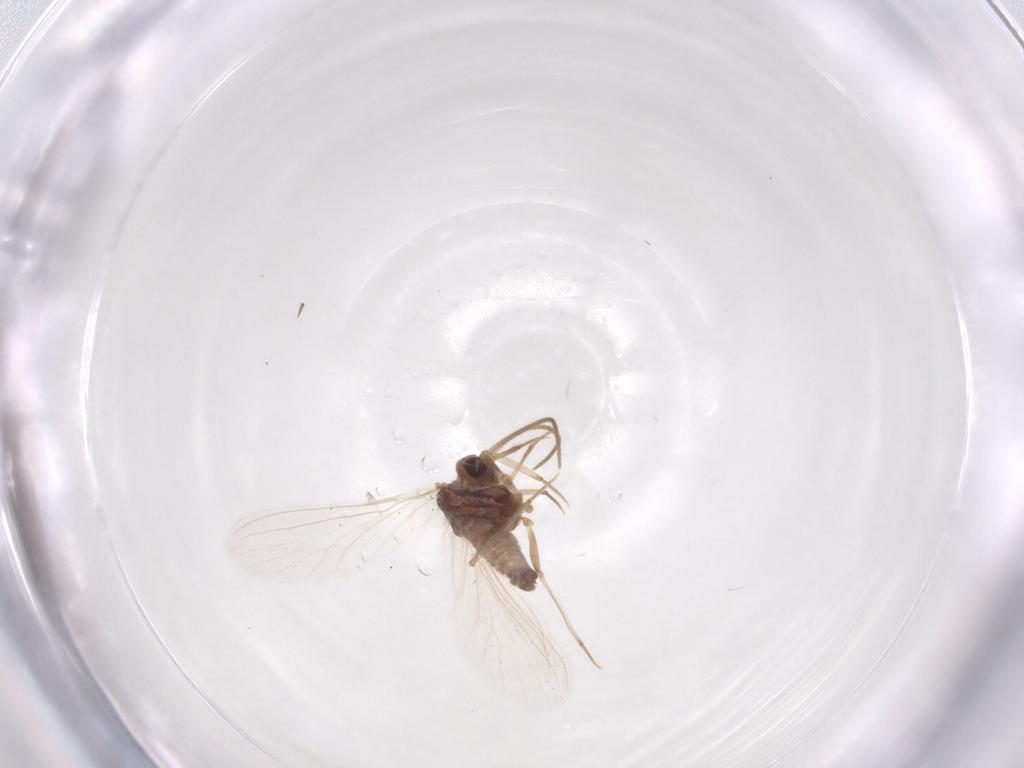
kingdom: Animalia
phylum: Arthropoda
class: Insecta
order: Neuroptera
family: Coniopterygidae
